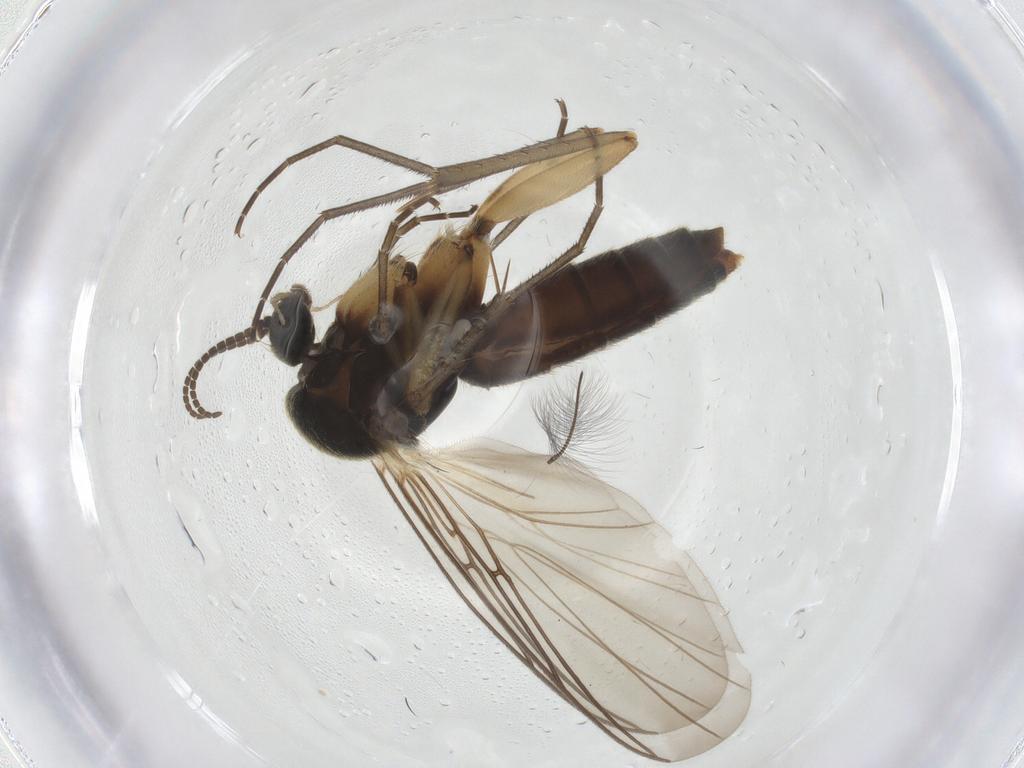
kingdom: Animalia
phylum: Arthropoda
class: Insecta
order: Diptera
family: Mycetophilidae
